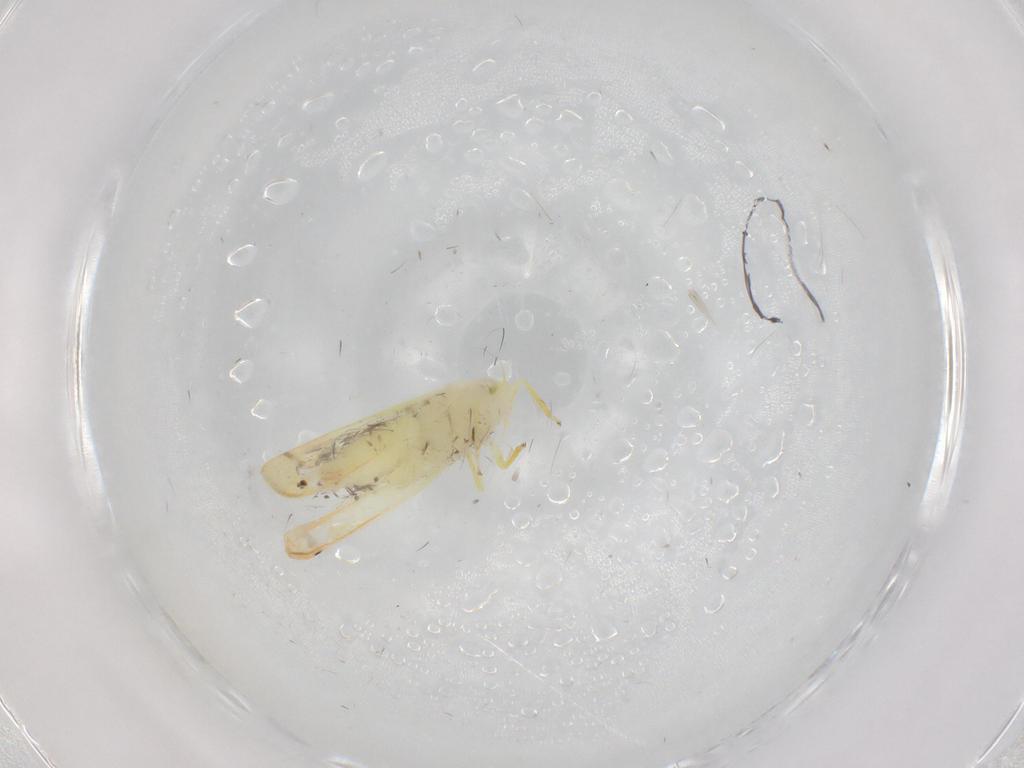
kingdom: Animalia
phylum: Arthropoda
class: Insecta
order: Hemiptera
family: Cicadellidae
